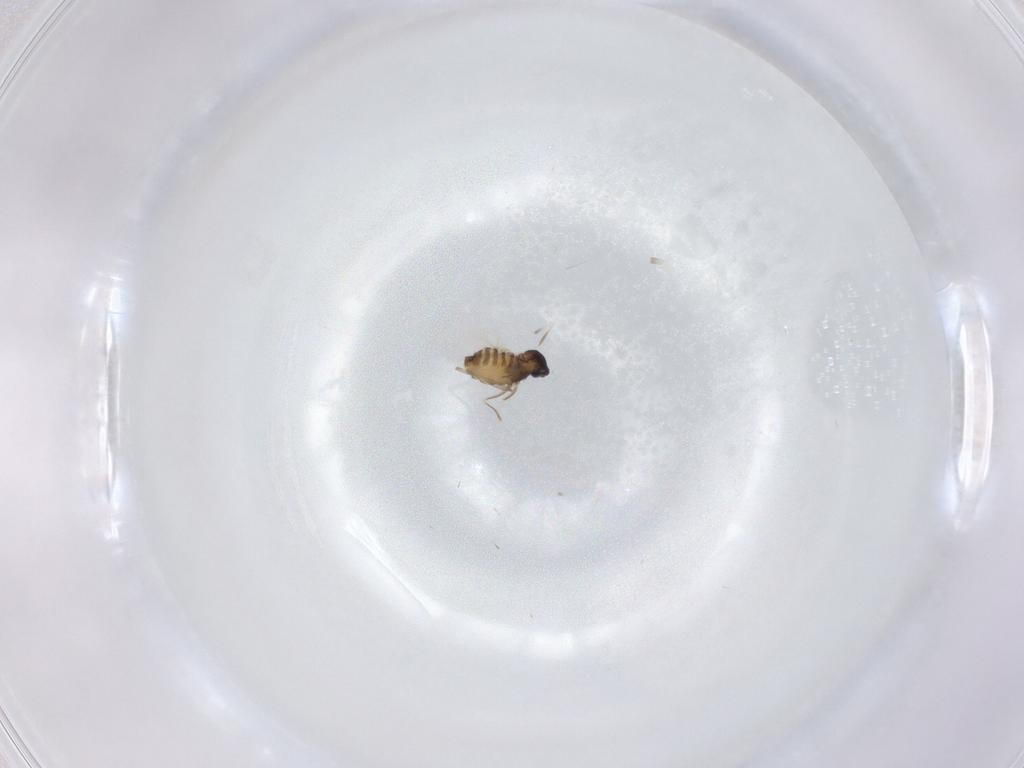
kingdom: Animalia
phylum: Arthropoda
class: Insecta
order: Diptera
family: Cecidomyiidae
